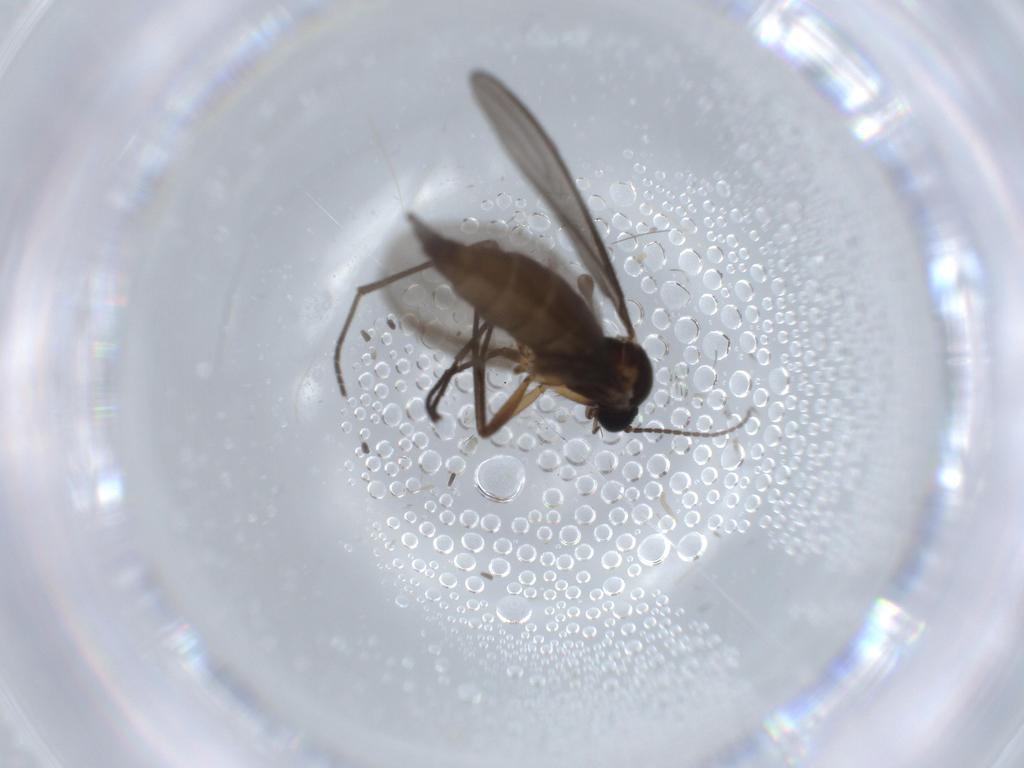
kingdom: Animalia
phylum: Arthropoda
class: Insecta
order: Diptera
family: Sciaridae
